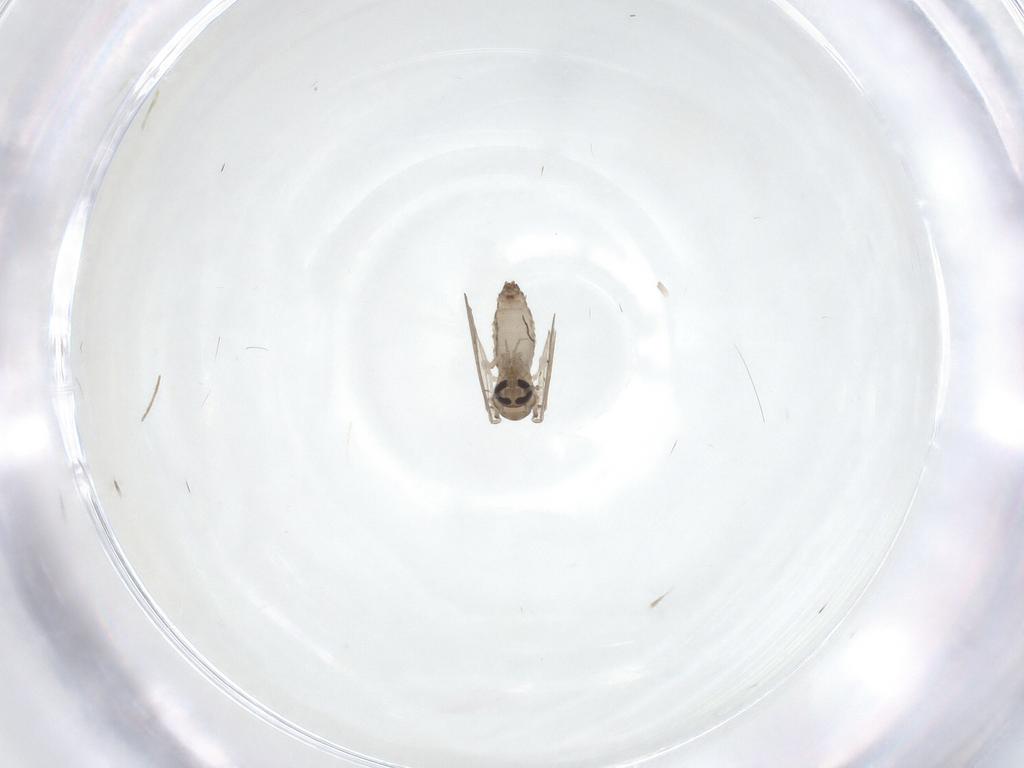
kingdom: Animalia
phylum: Arthropoda
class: Insecta
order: Diptera
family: Psychodidae
